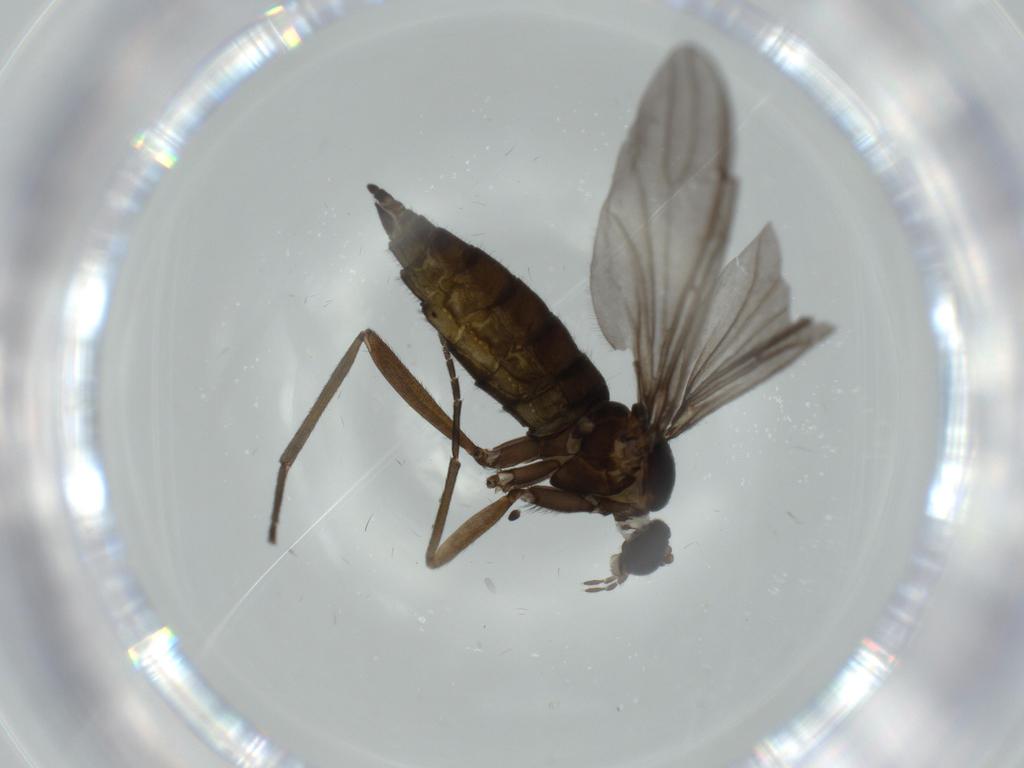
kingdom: Animalia
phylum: Arthropoda
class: Insecta
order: Diptera
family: Sciaridae
